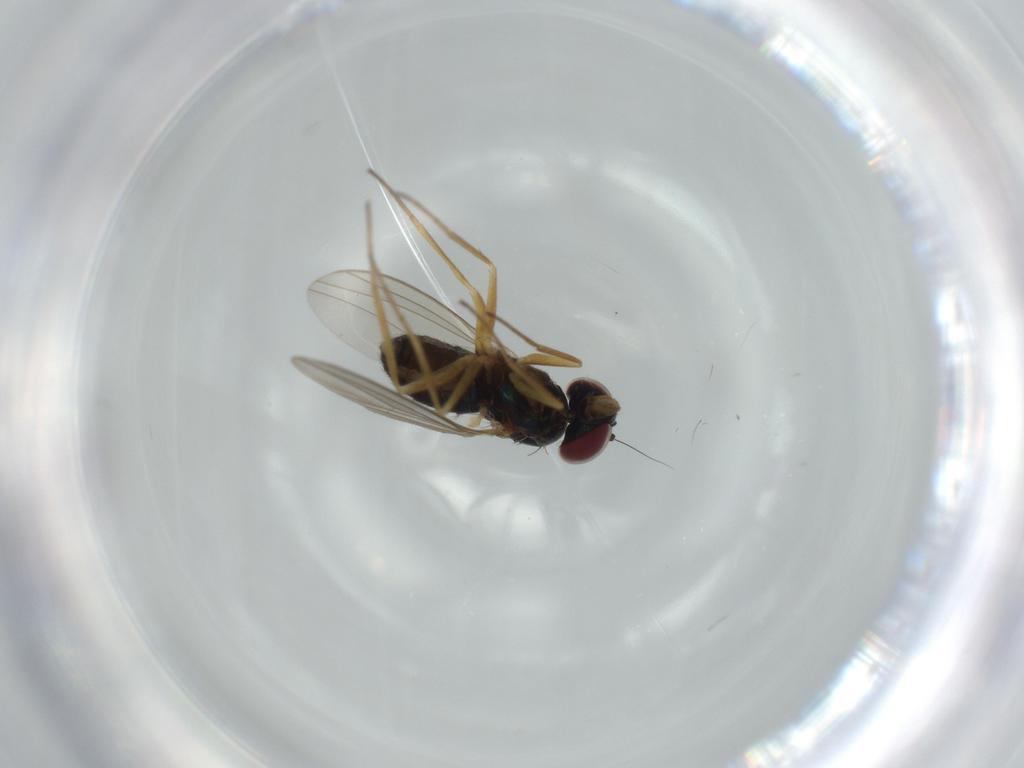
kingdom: Animalia
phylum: Arthropoda
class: Insecta
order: Diptera
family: Dolichopodidae
